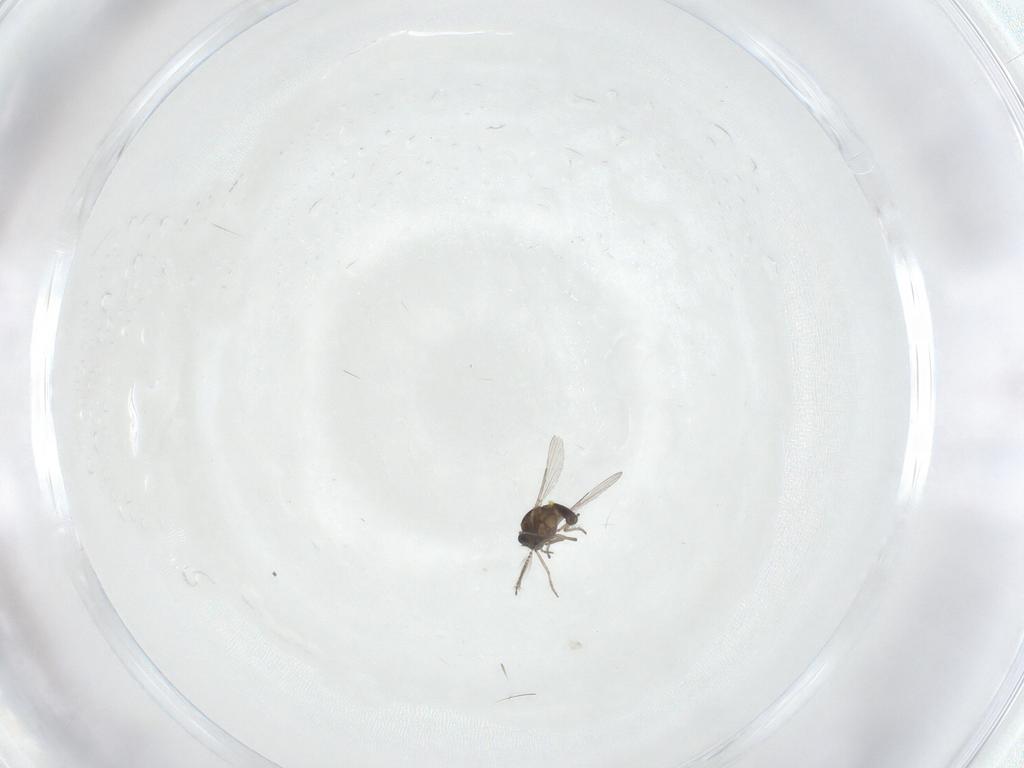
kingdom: Animalia
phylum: Arthropoda
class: Insecta
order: Diptera
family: Ceratopogonidae
